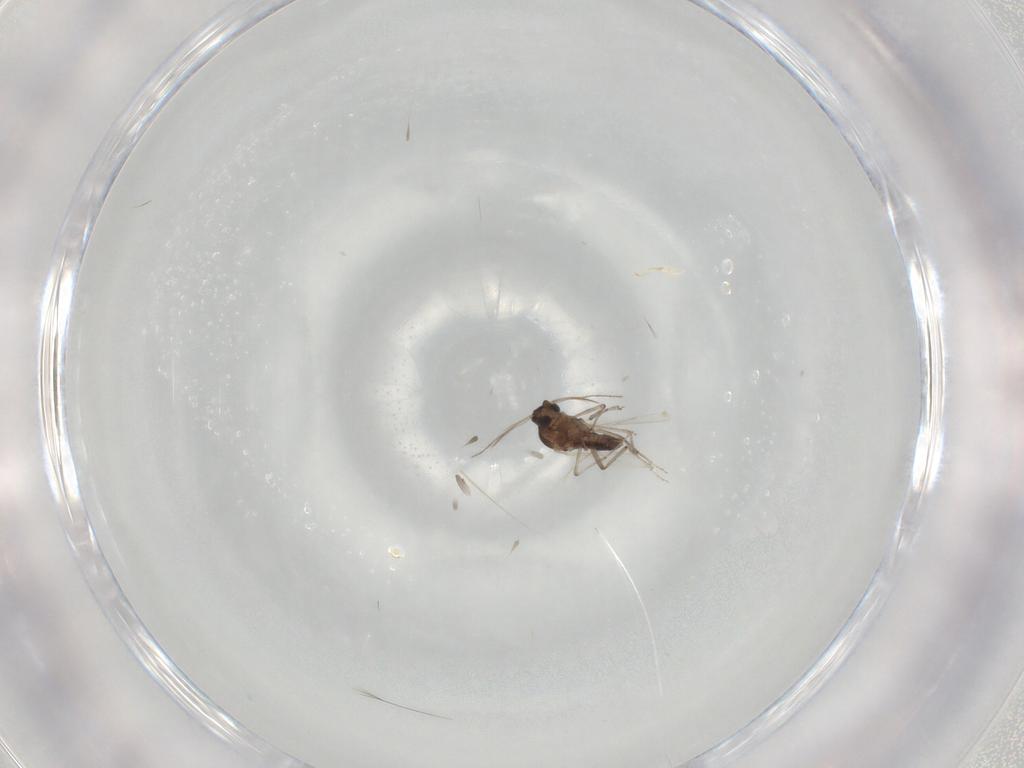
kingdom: Animalia
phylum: Arthropoda
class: Insecta
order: Diptera
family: Ceratopogonidae
